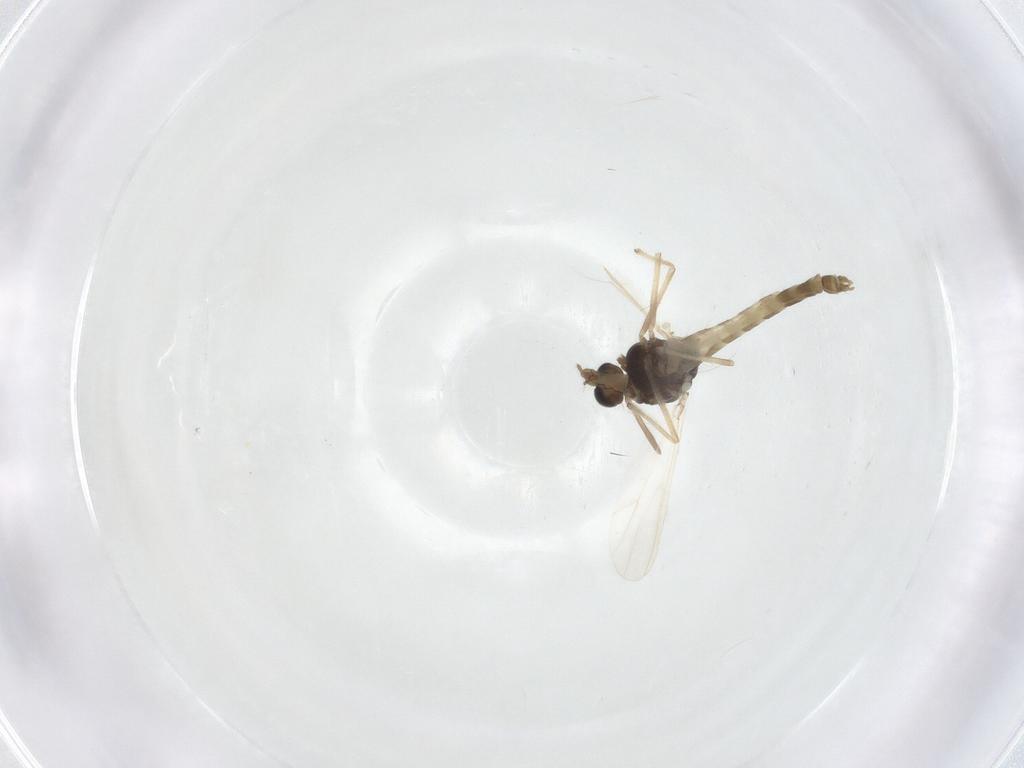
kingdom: Animalia
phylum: Arthropoda
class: Insecta
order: Diptera
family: Chironomidae
